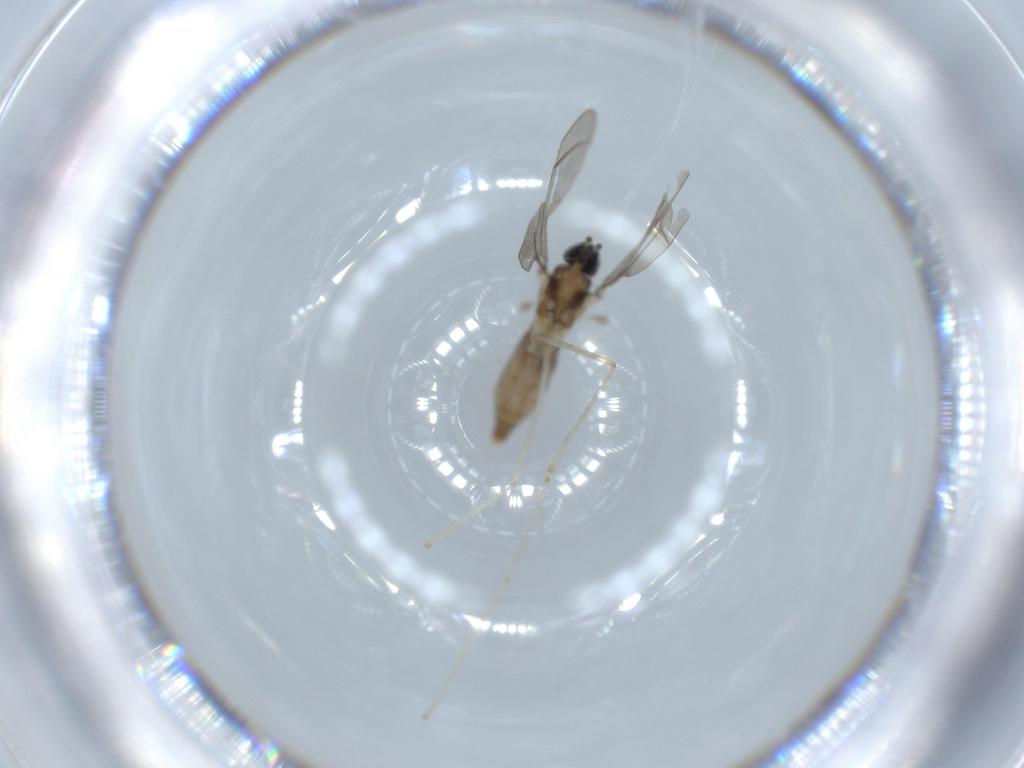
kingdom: Animalia
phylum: Arthropoda
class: Insecta
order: Diptera
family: Cecidomyiidae
